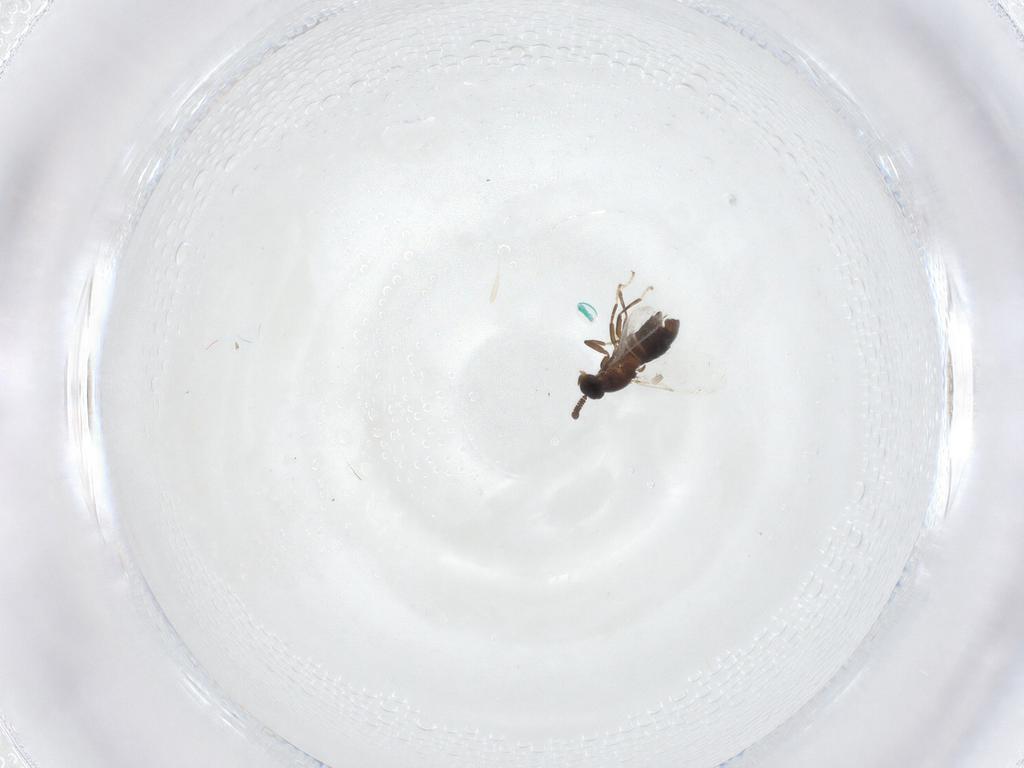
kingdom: Animalia
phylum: Arthropoda
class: Insecta
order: Diptera
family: Scatopsidae
